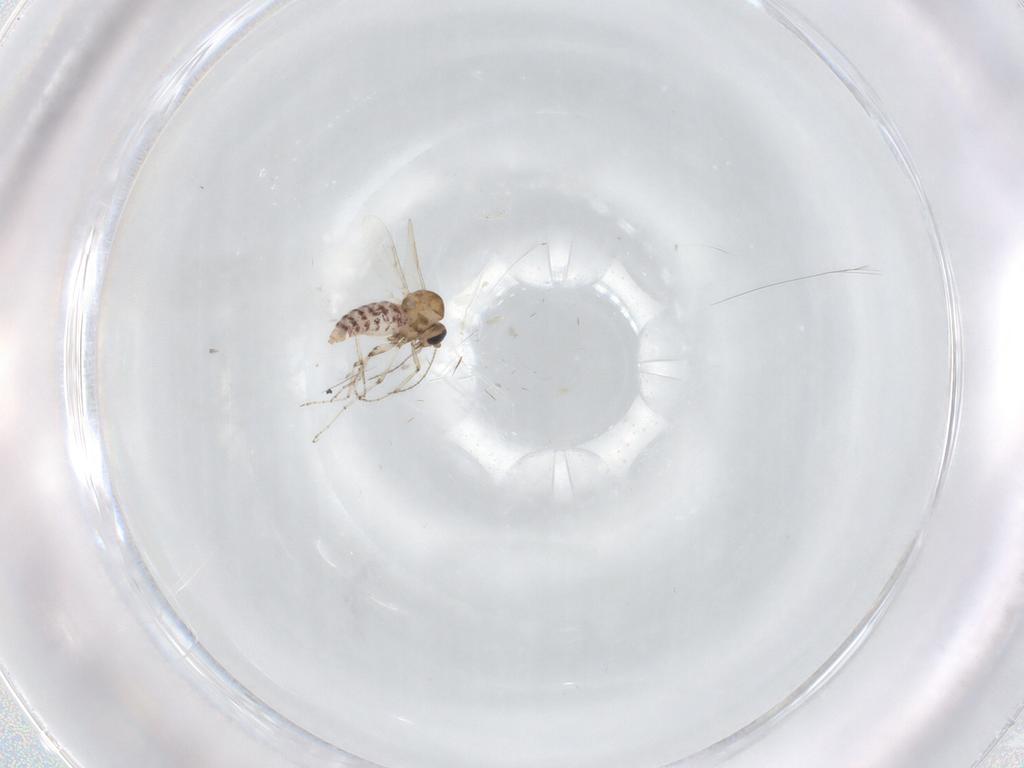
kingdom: Animalia
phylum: Arthropoda
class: Insecta
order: Diptera
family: Ceratopogonidae
